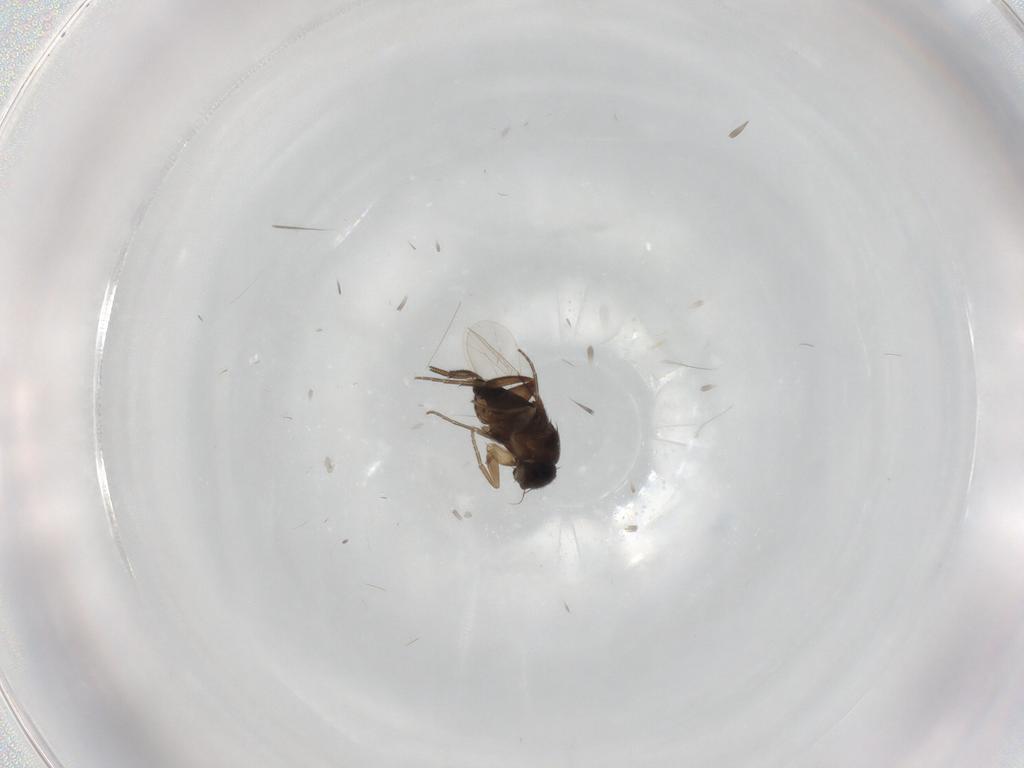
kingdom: Animalia
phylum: Arthropoda
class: Insecta
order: Diptera
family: Phoridae
